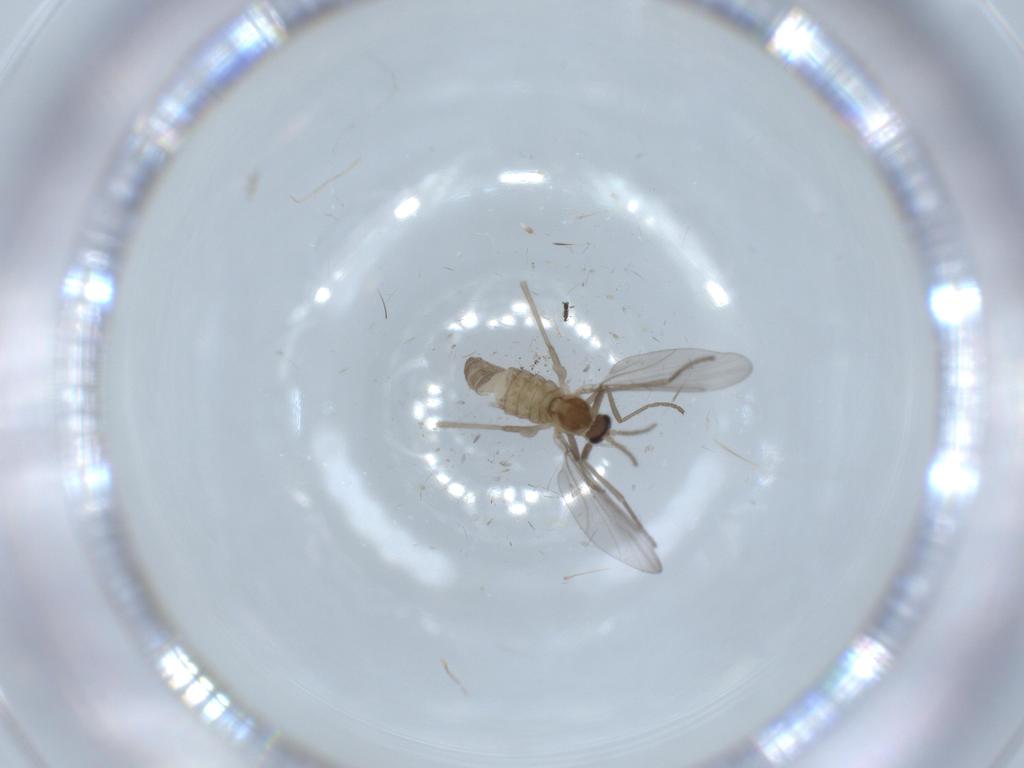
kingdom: Animalia
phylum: Arthropoda
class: Insecta
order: Diptera
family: Cecidomyiidae
